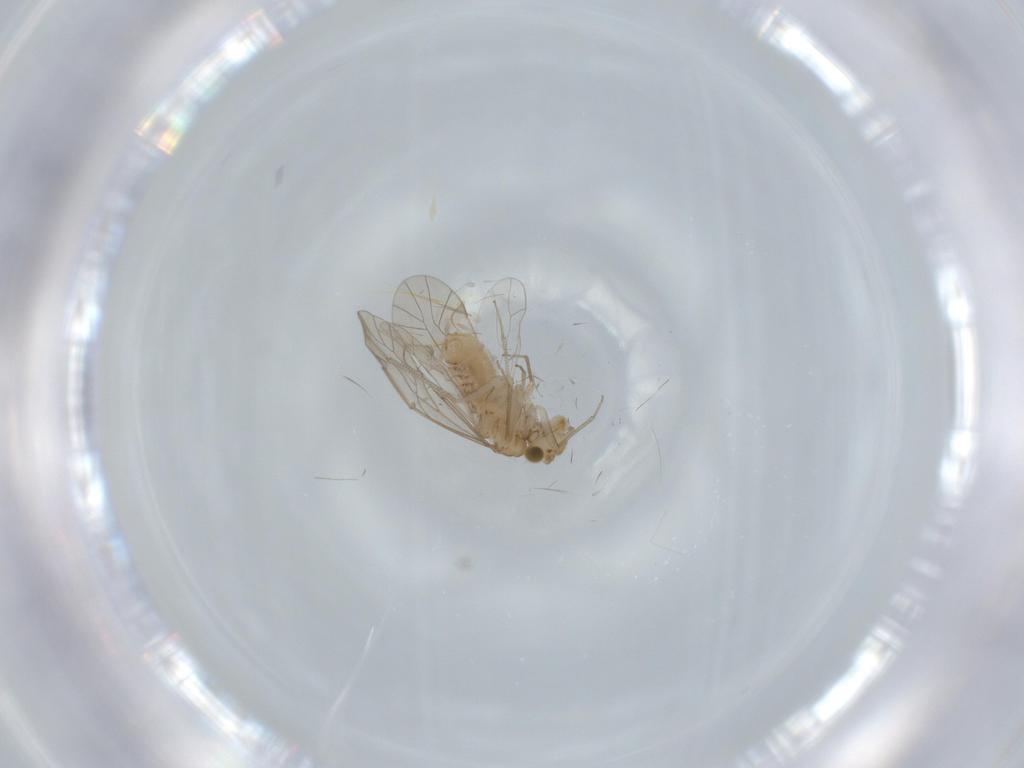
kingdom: Animalia
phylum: Arthropoda
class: Insecta
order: Psocodea
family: Lachesillidae
